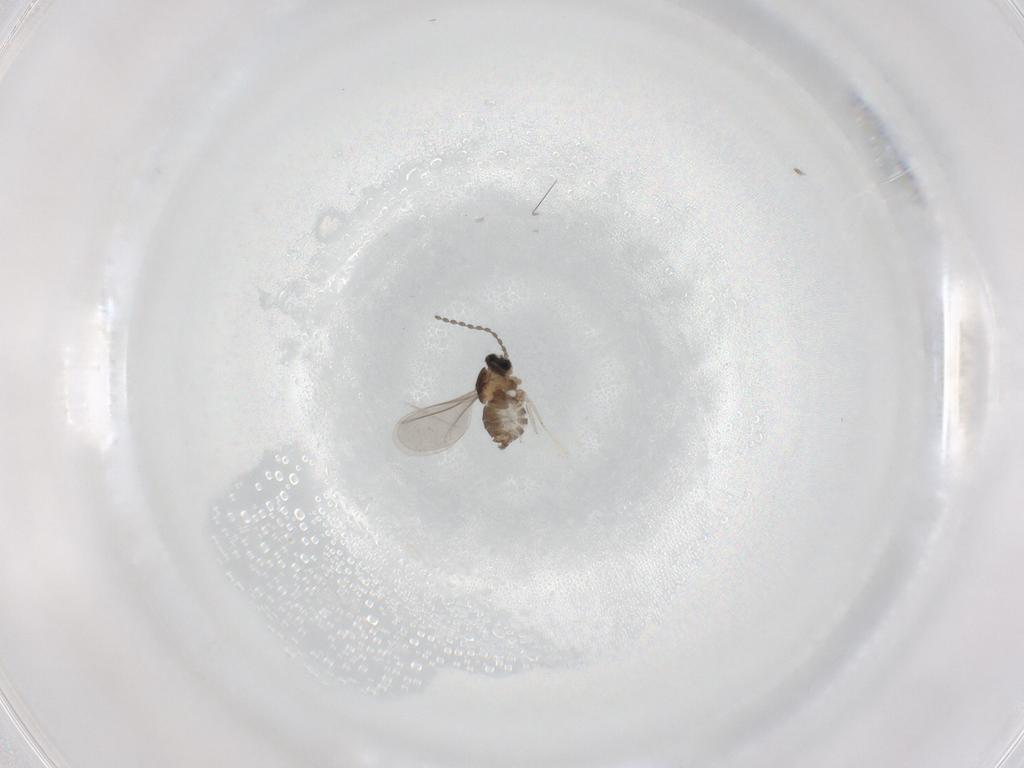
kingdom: Animalia
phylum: Arthropoda
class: Insecta
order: Diptera
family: Cecidomyiidae
